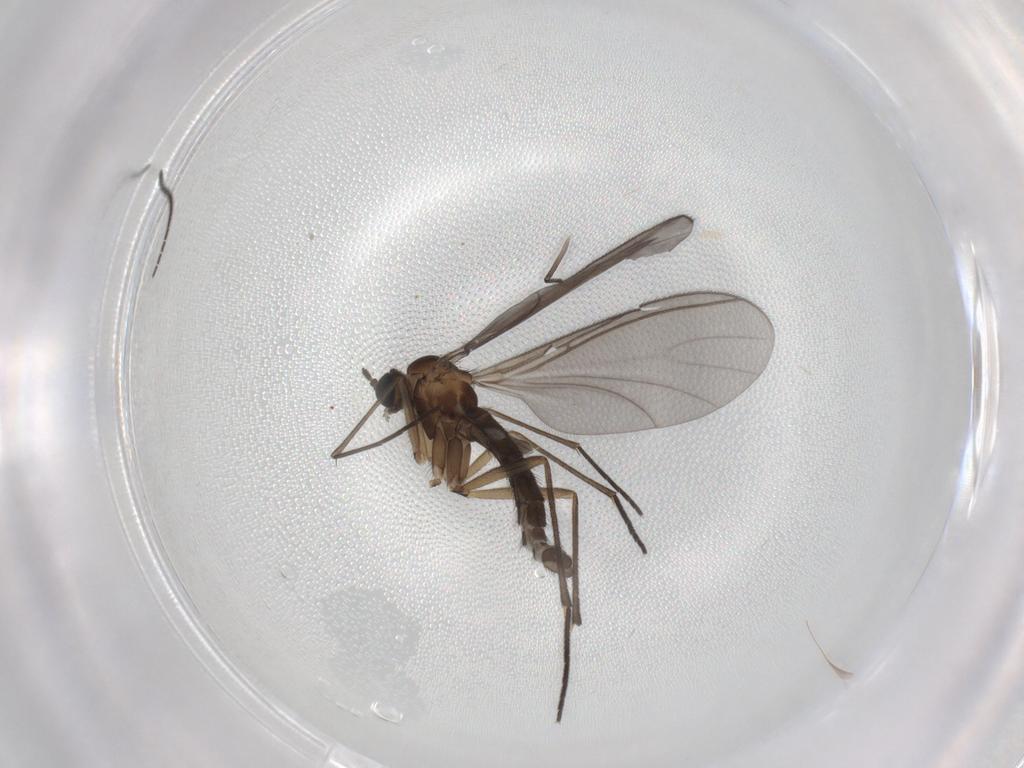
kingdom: Animalia
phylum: Arthropoda
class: Insecta
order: Diptera
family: Sciaridae
